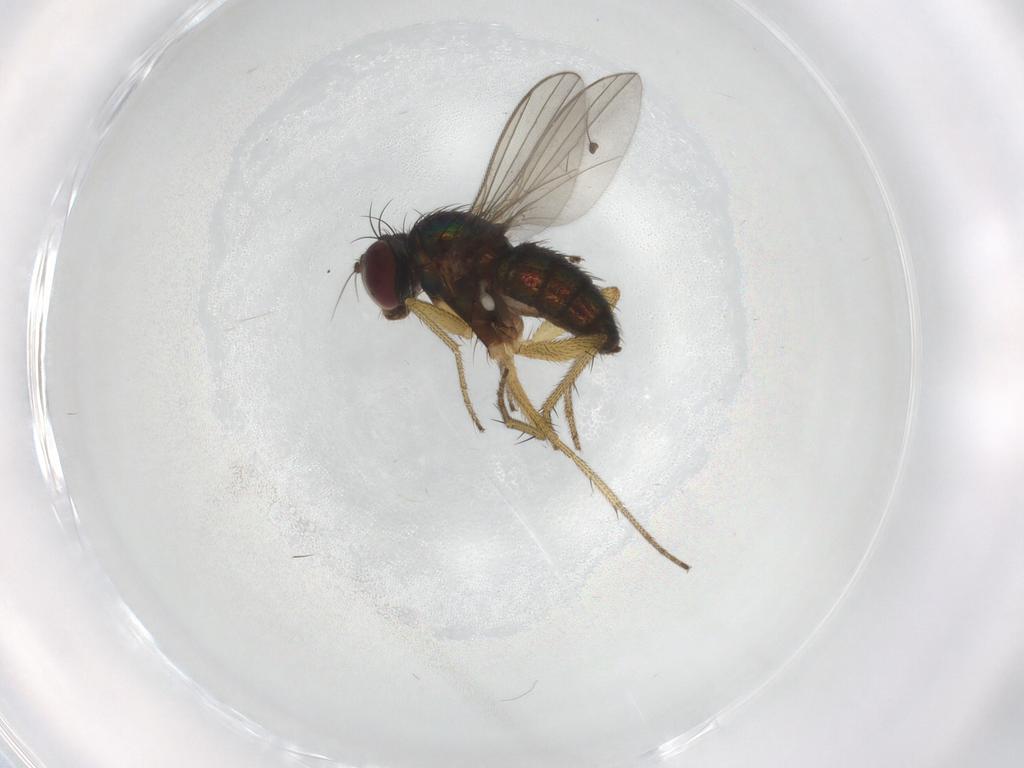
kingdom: Animalia
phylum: Arthropoda
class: Insecta
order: Diptera
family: Dolichopodidae
